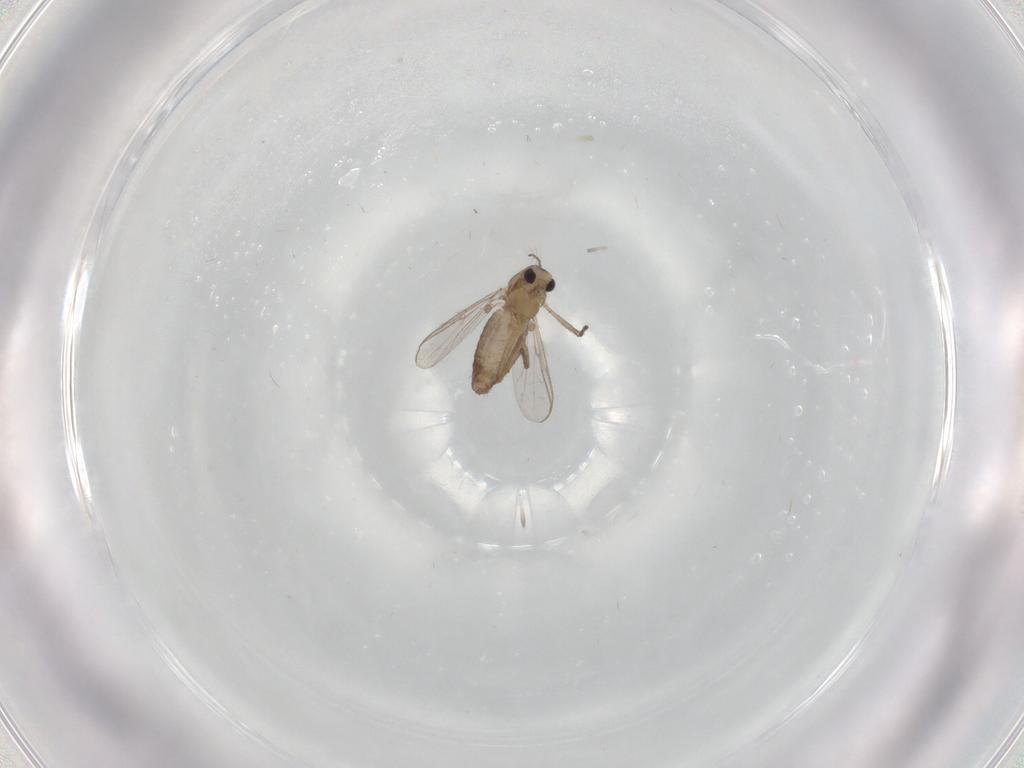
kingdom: Animalia
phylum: Arthropoda
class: Insecta
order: Diptera
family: Chironomidae
